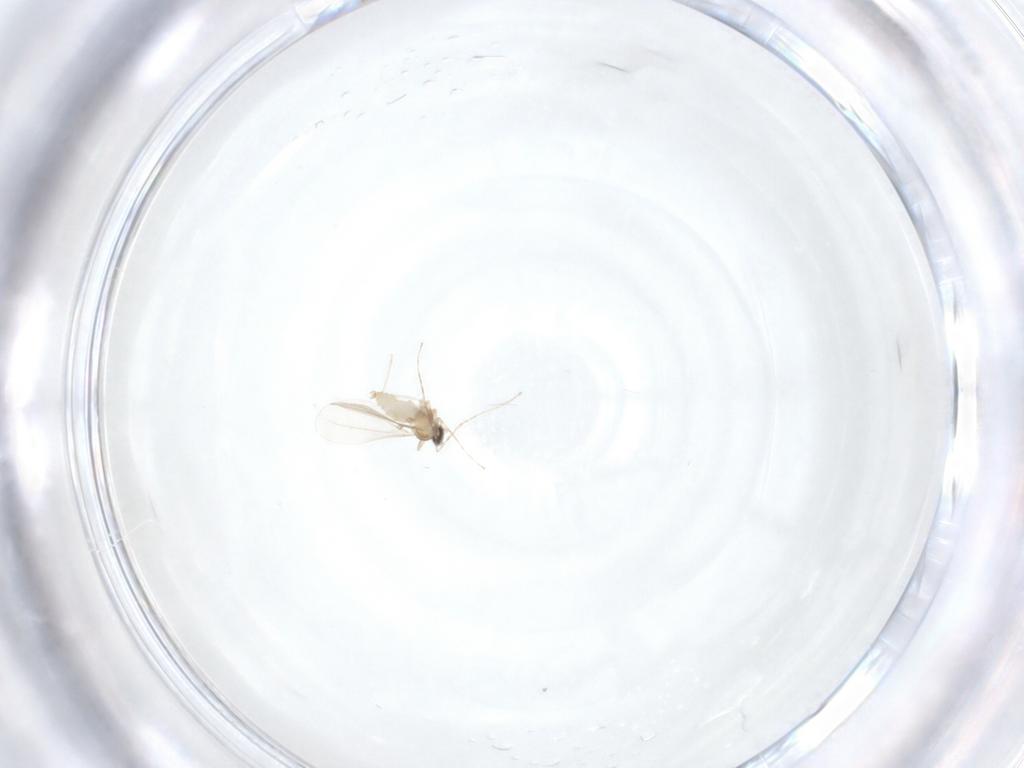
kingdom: Animalia
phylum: Arthropoda
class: Insecta
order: Diptera
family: Cecidomyiidae
